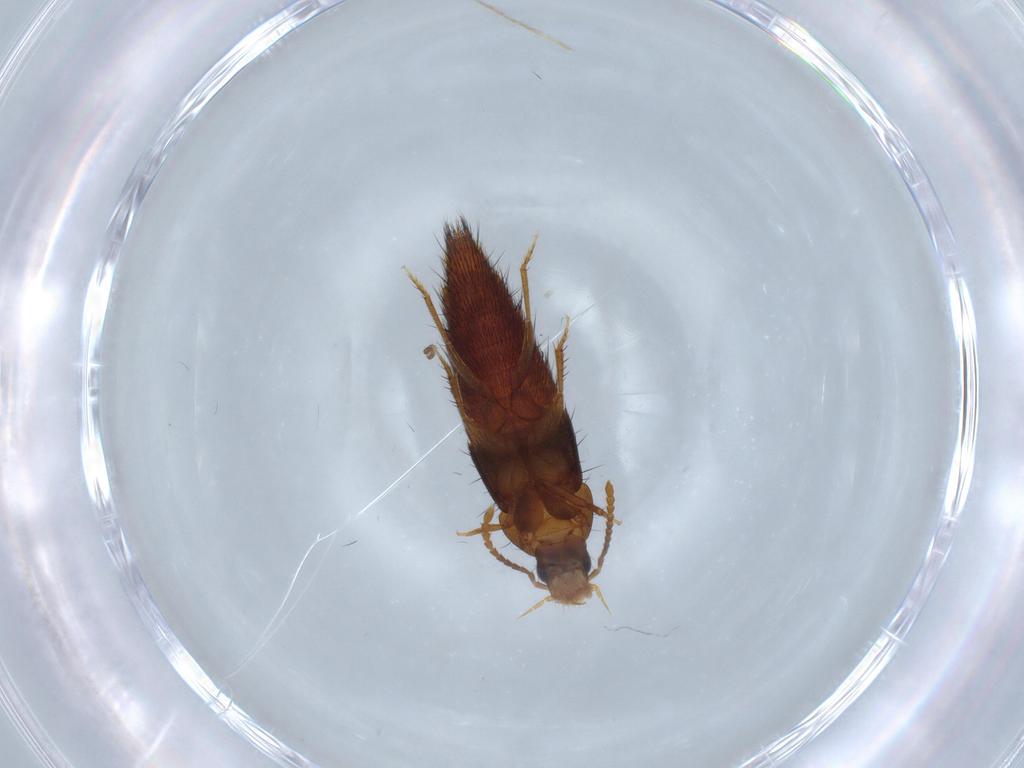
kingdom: Animalia
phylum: Arthropoda
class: Insecta
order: Coleoptera
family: Staphylinidae
